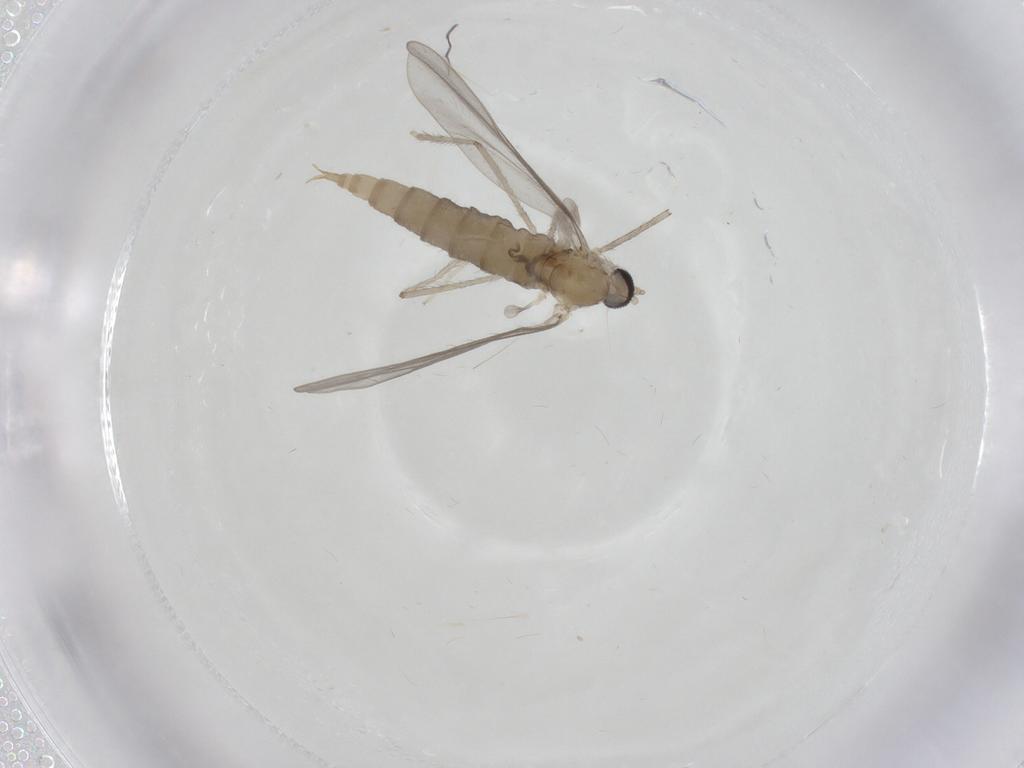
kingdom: Animalia
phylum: Arthropoda
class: Insecta
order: Diptera
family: Cecidomyiidae
